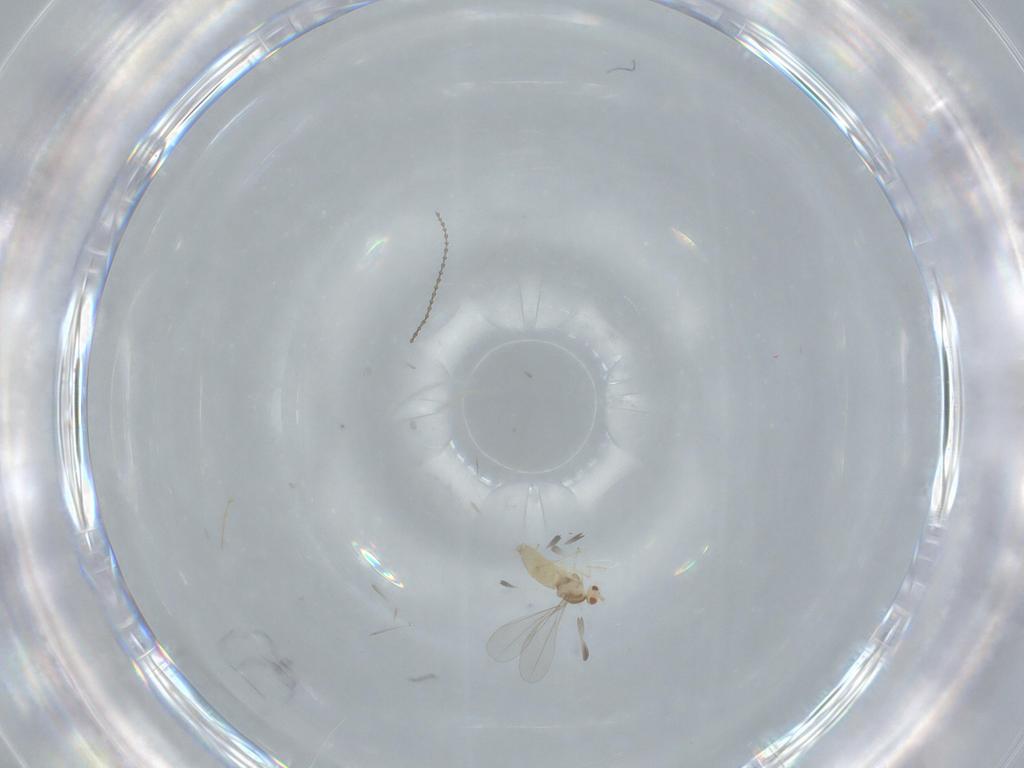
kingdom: Animalia
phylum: Arthropoda
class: Insecta
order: Diptera
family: Cecidomyiidae
